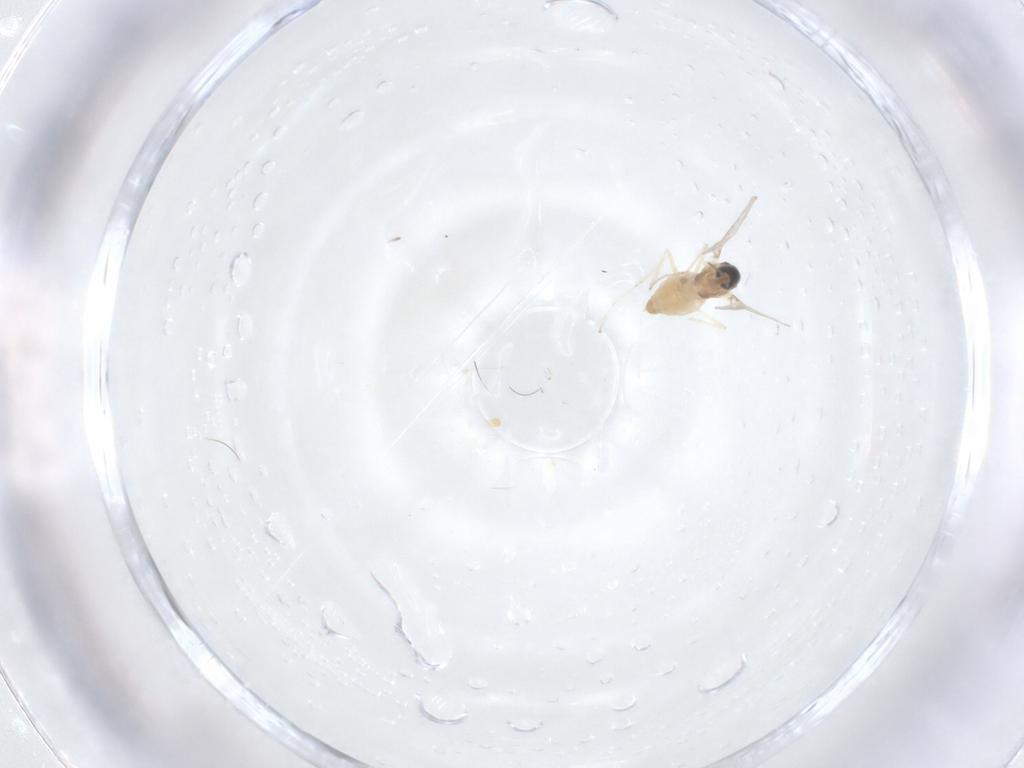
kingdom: Animalia
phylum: Arthropoda
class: Insecta
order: Diptera
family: Cecidomyiidae
